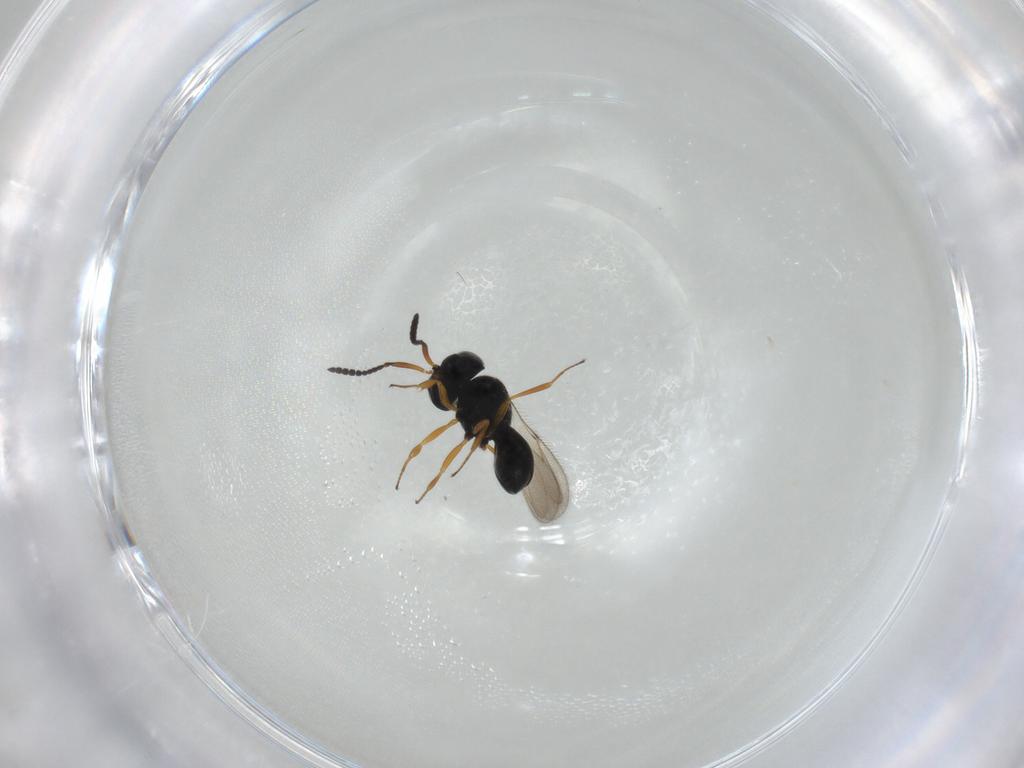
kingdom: Animalia
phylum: Arthropoda
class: Insecta
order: Hymenoptera
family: Scelionidae
